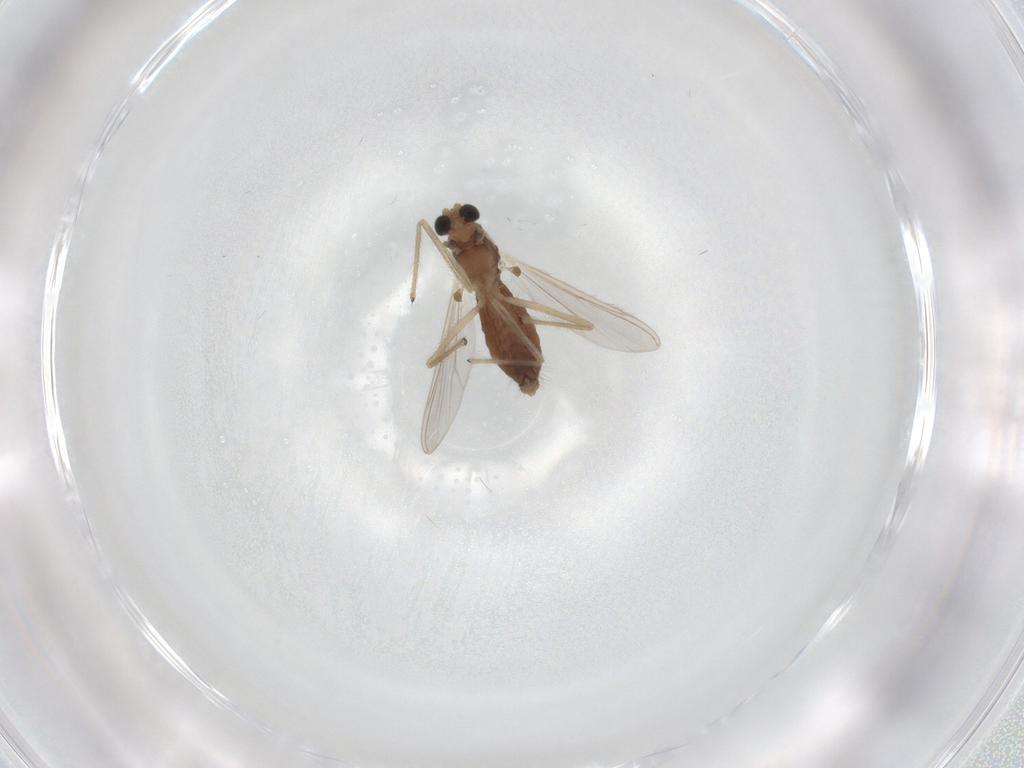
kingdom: Animalia
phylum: Arthropoda
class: Insecta
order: Diptera
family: Chironomidae
